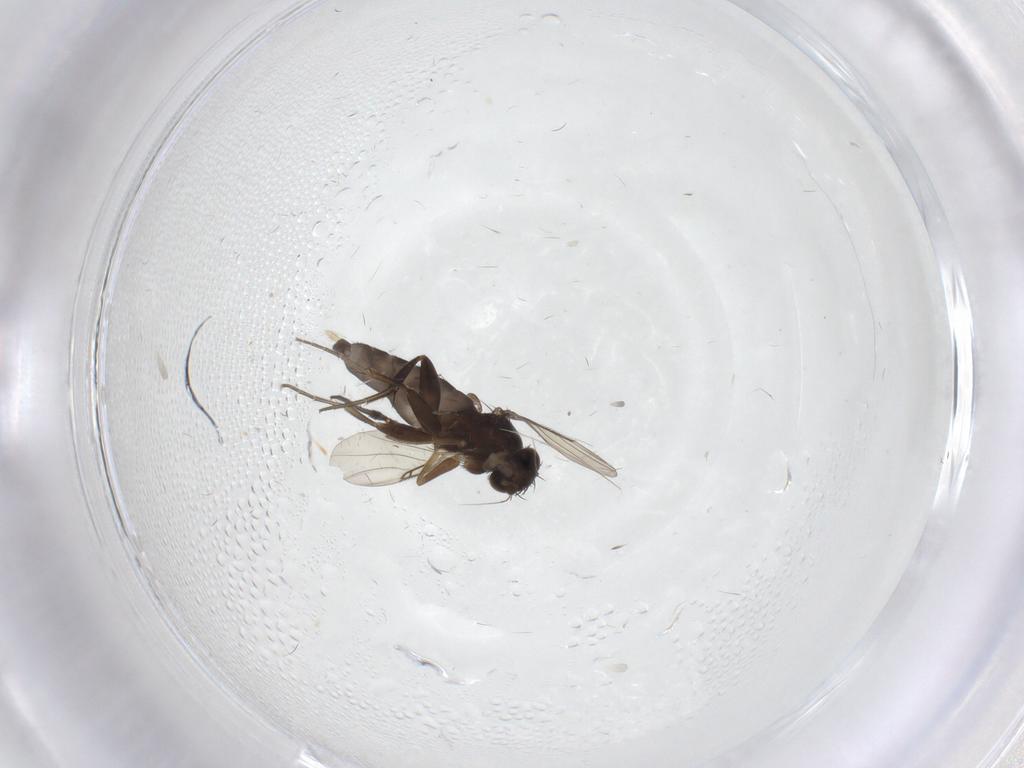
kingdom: Animalia
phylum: Arthropoda
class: Insecta
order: Diptera
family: Phoridae
